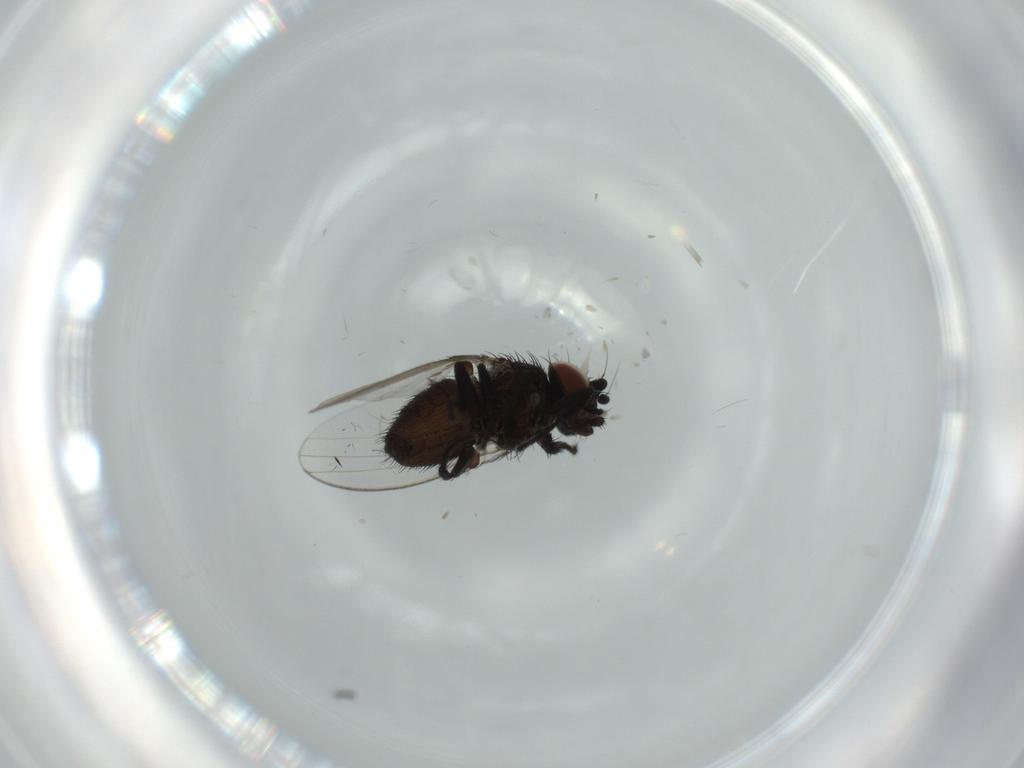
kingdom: Animalia
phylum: Arthropoda
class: Insecta
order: Diptera
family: Milichiidae
